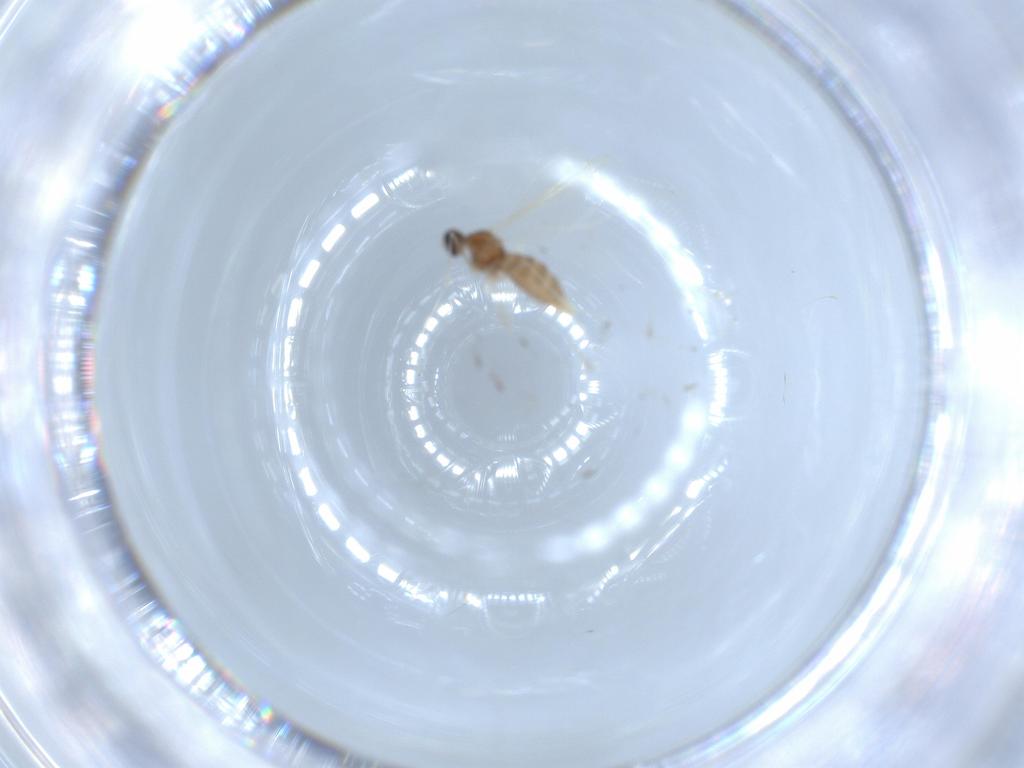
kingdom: Animalia
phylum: Arthropoda
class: Insecta
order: Diptera
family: Cecidomyiidae
